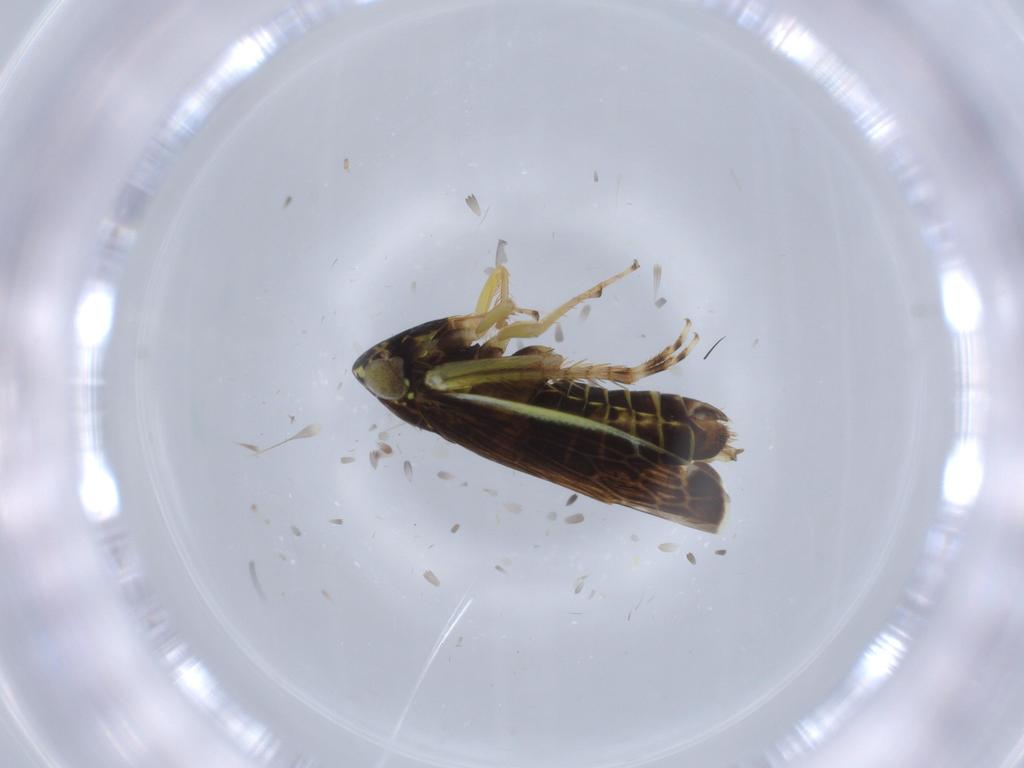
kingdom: Animalia
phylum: Arthropoda
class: Insecta
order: Hemiptera
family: Cicadellidae
